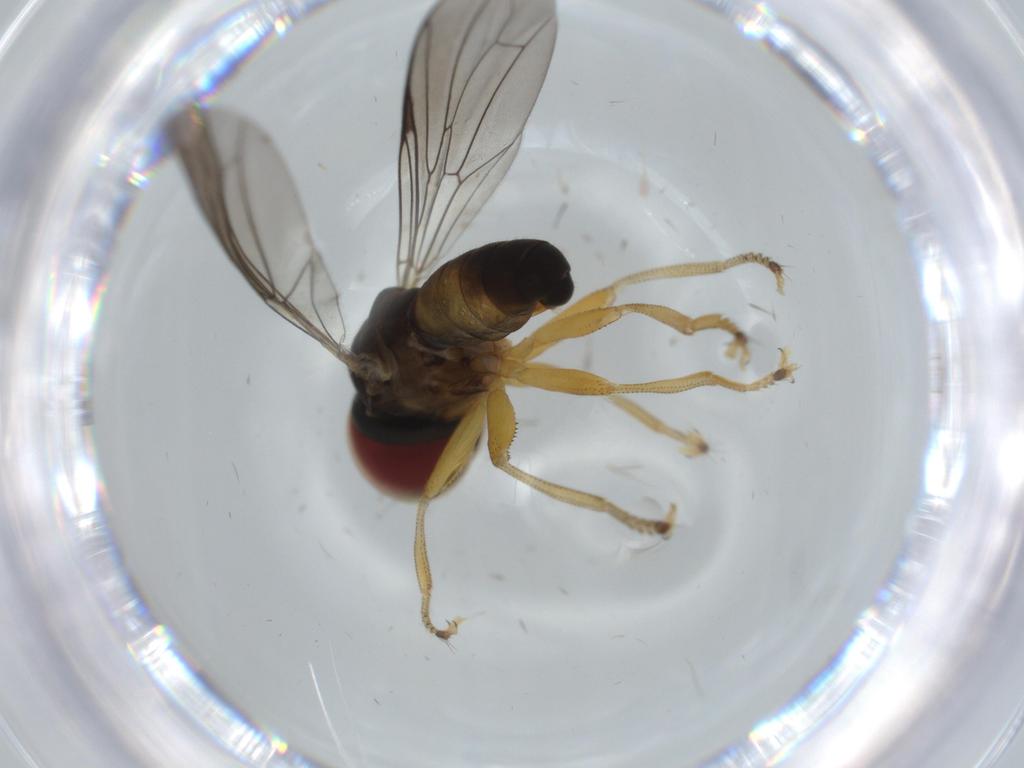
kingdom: Animalia
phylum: Arthropoda
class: Insecta
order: Diptera
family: Pipunculidae
